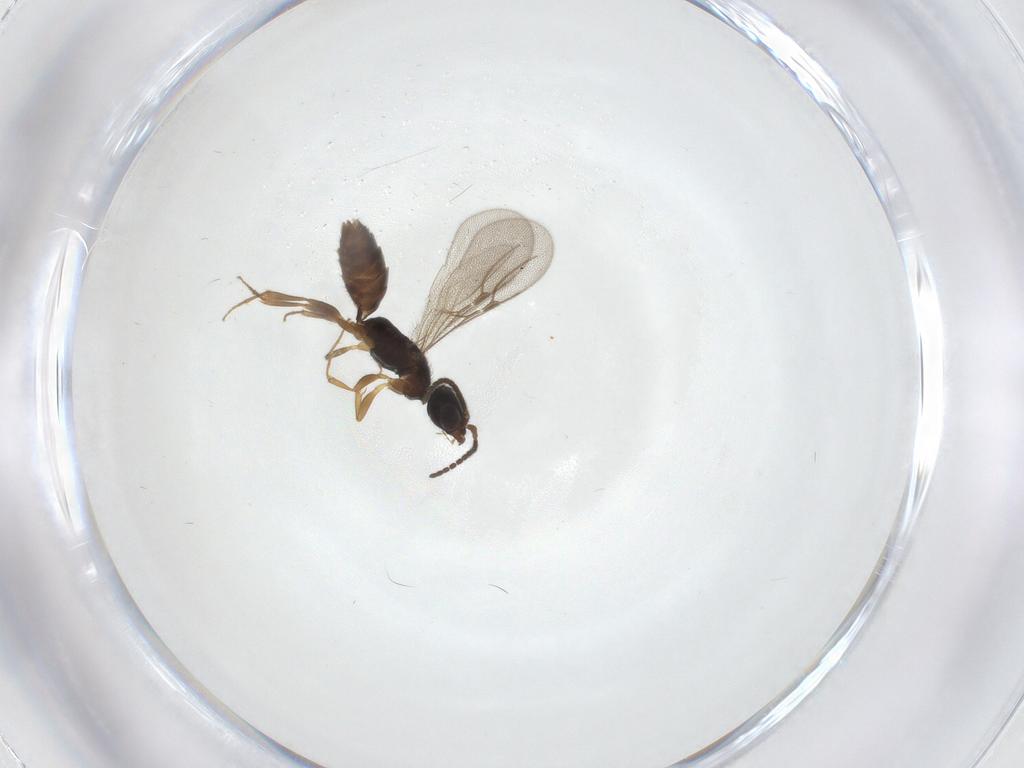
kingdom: Animalia
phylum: Arthropoda
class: Insecta
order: Hymenoptera
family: Bethylidae
